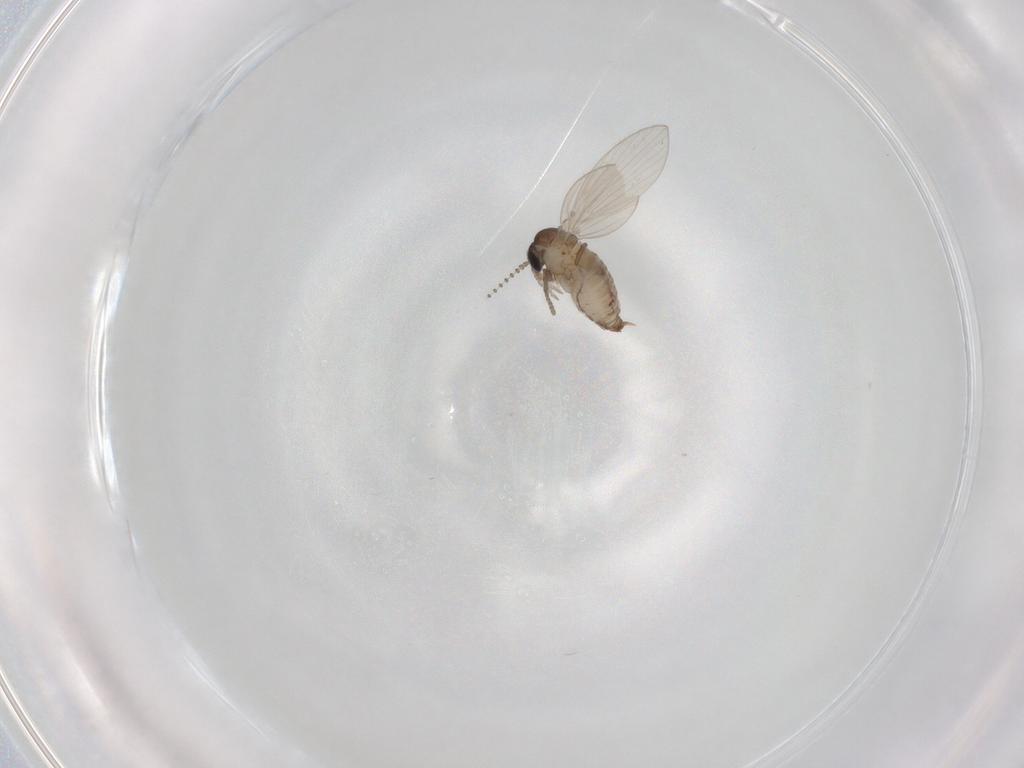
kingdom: Animalia
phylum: Arthropoda
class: Insecta
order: Diptera
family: Psychodidae
